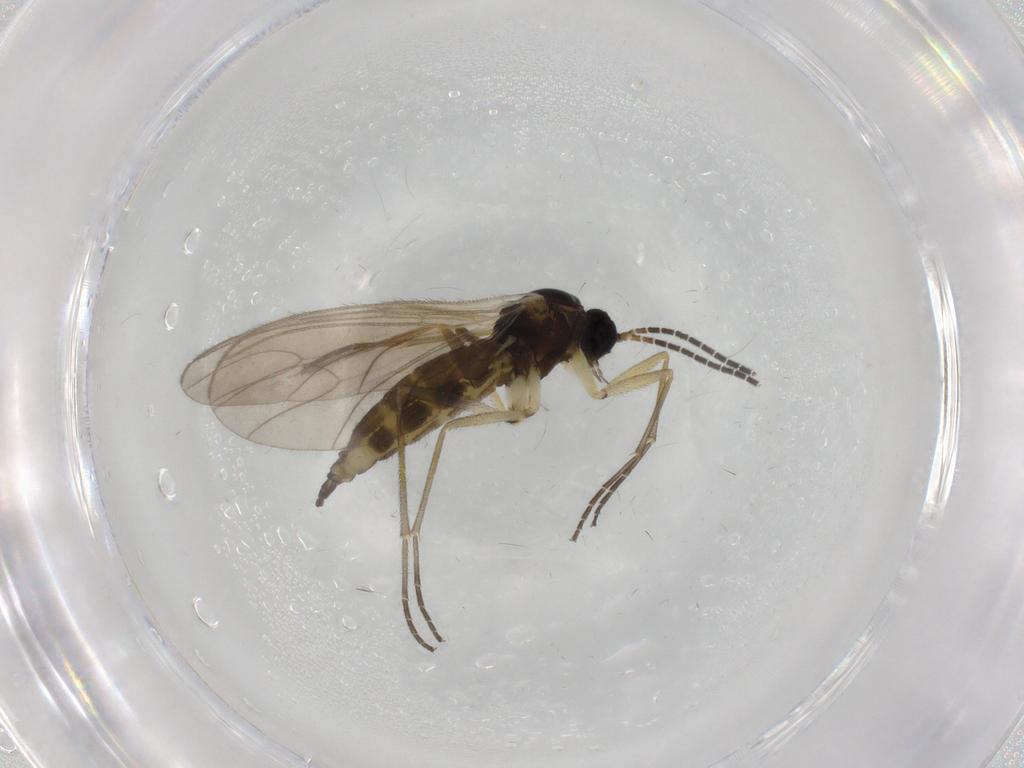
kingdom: Animalia
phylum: Arthropoda
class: Insecta
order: Diptera
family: Sciaridae
